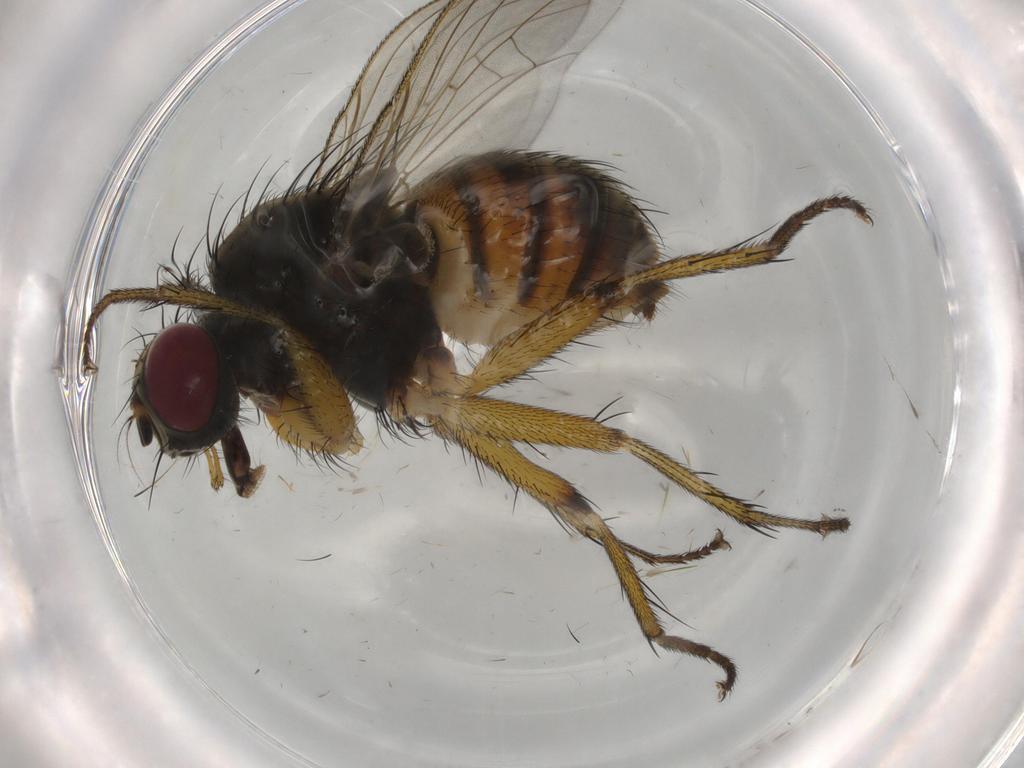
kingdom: Animalia
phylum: Arthropoda
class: Insecta
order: Diptera
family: Muscidae
